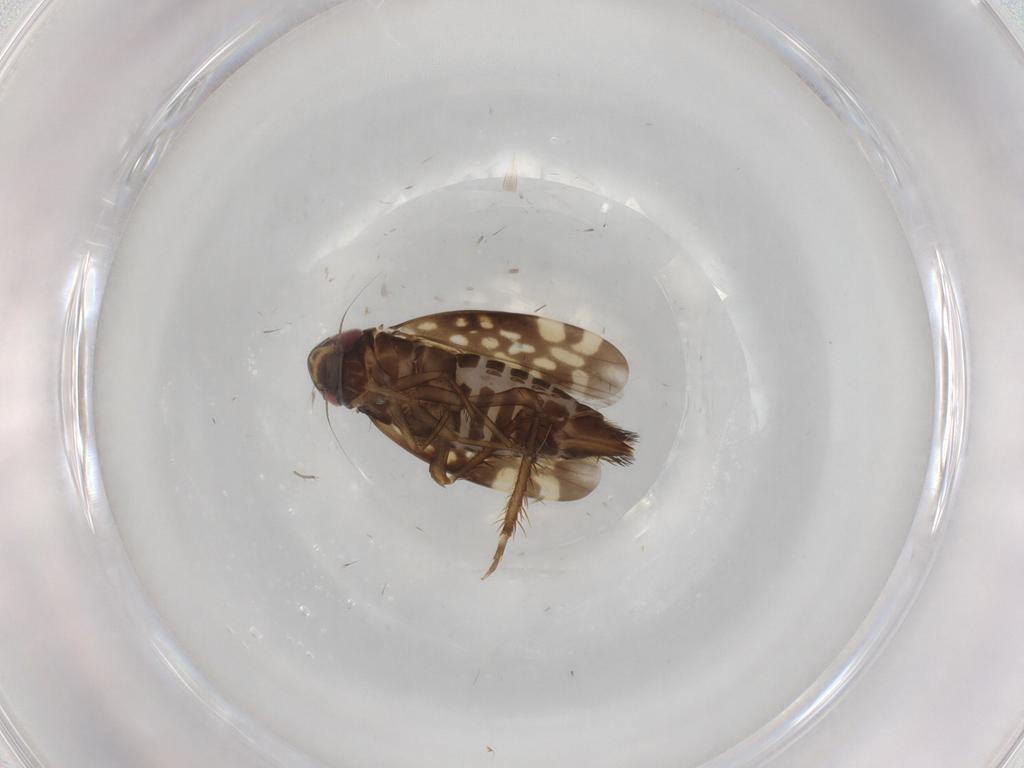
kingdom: Animalia
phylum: Arthropoda
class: Insecta
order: Hemiptera
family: Cicadellidae
